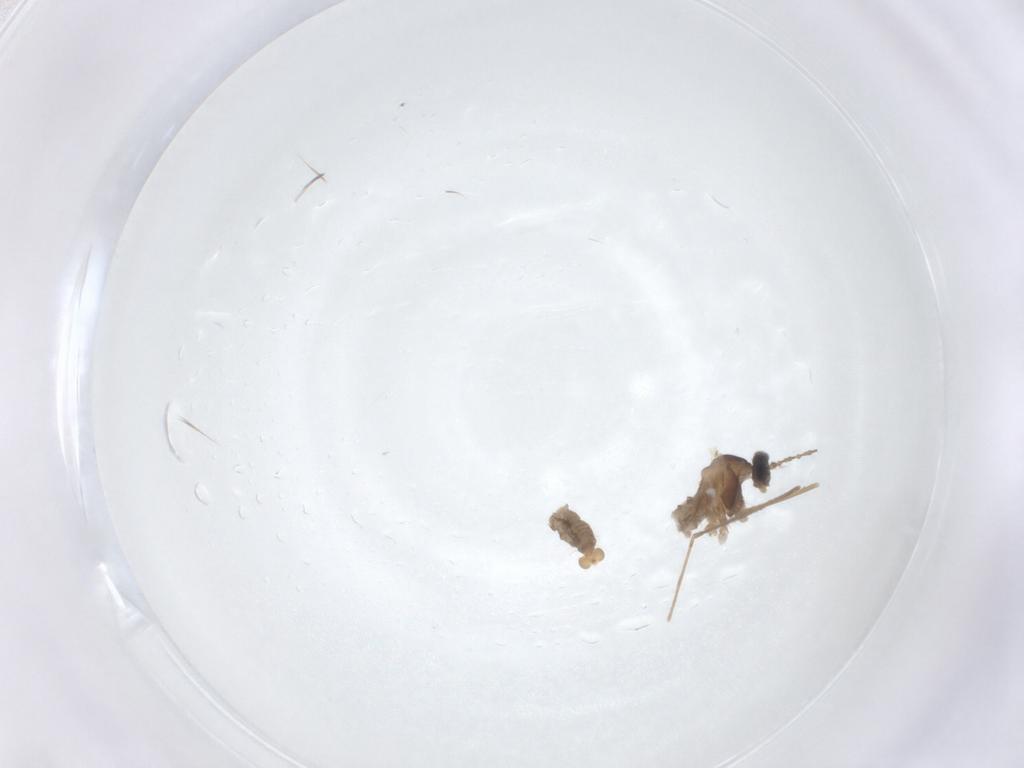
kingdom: Animalia
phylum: Arthropoda
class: Insecta
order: Diptera
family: Cecidomyiidae
